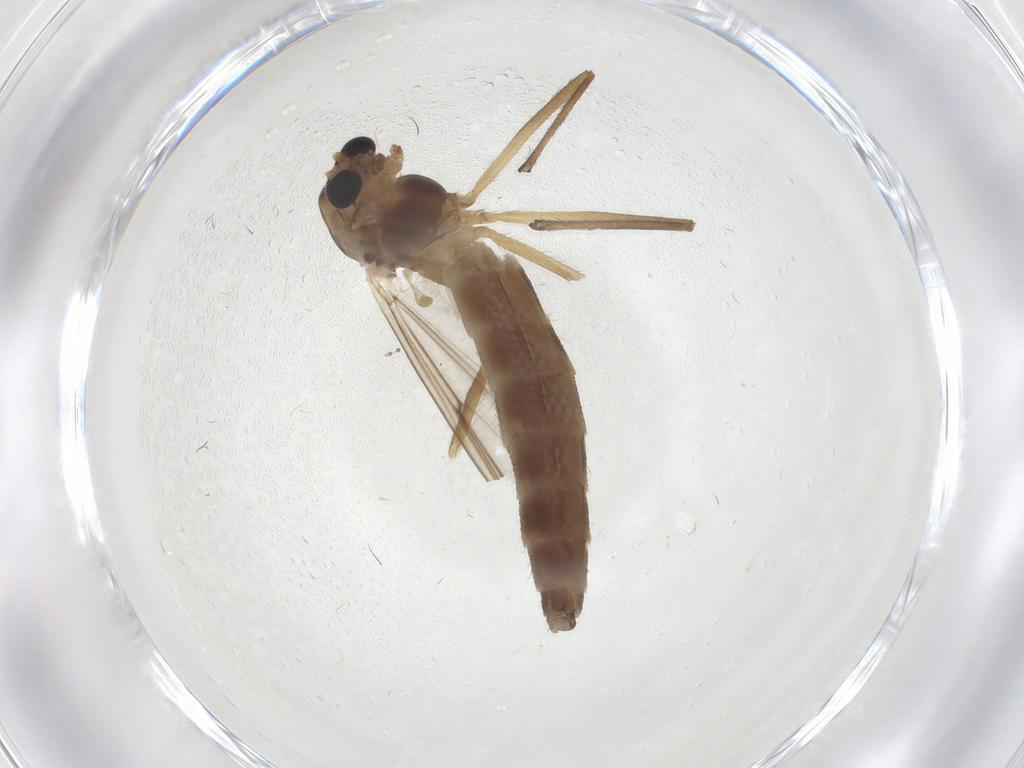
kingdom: Animalia
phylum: Arthropoda
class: Insecta
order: Diptera
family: Chironomidae
